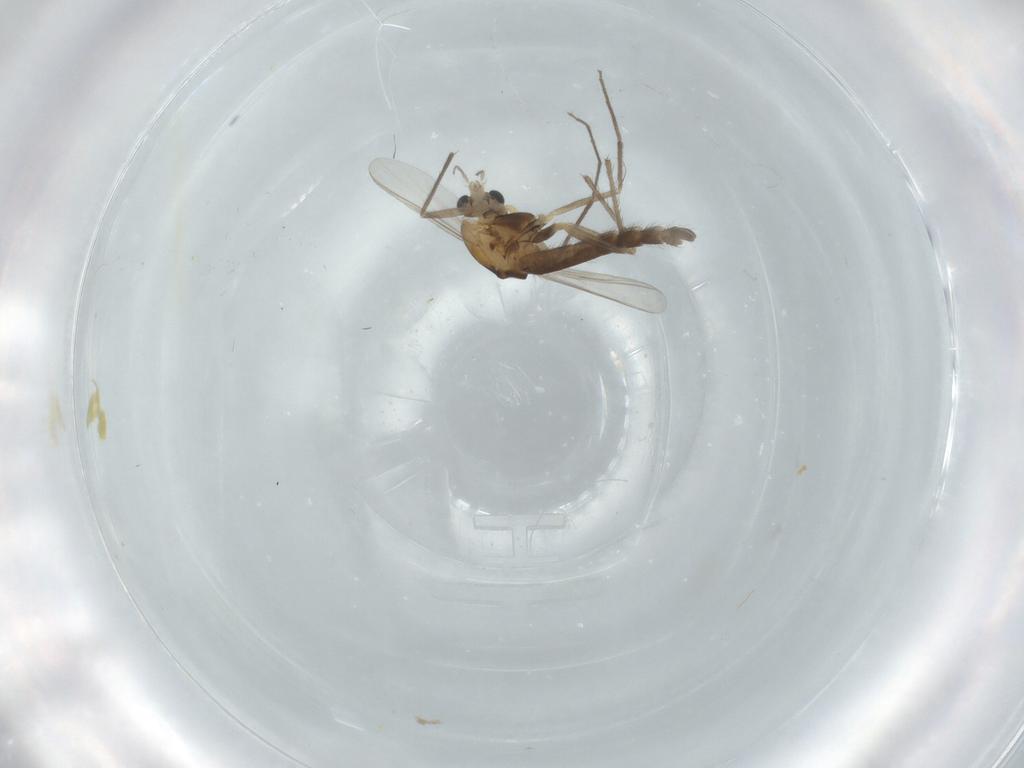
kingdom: Animalia
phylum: Arthropoda
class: Insecta
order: Diptera
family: Chironomidae
